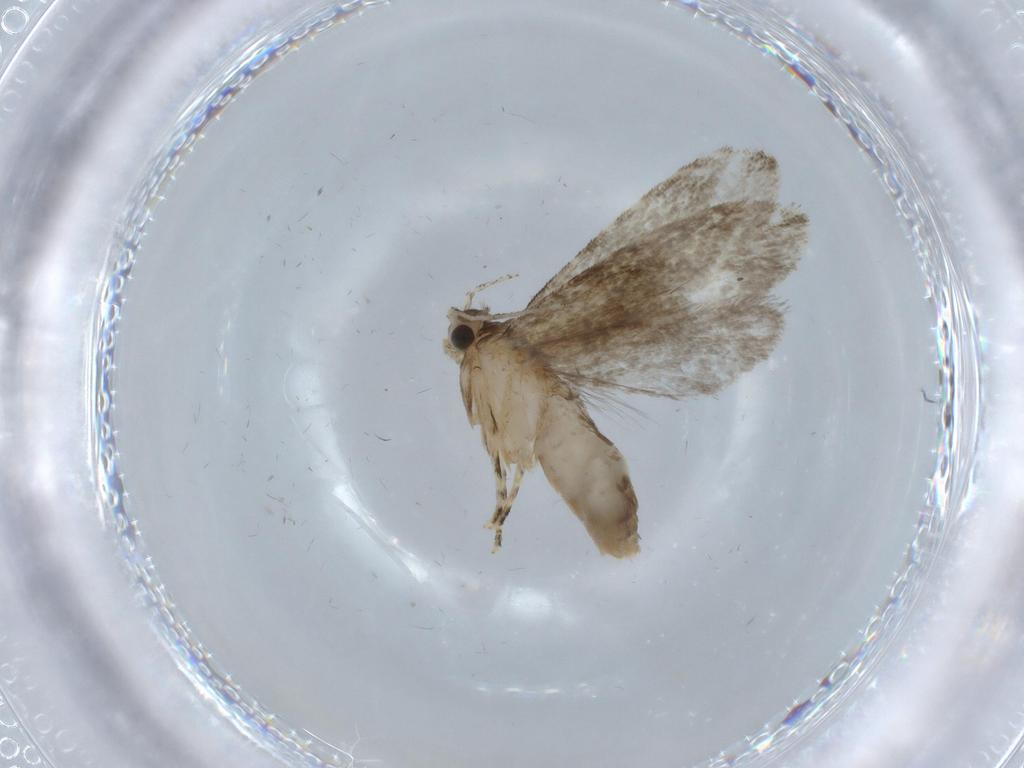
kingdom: Animalia
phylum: Arthropoda
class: Insecta
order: Lepidoptera
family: Tineidae
